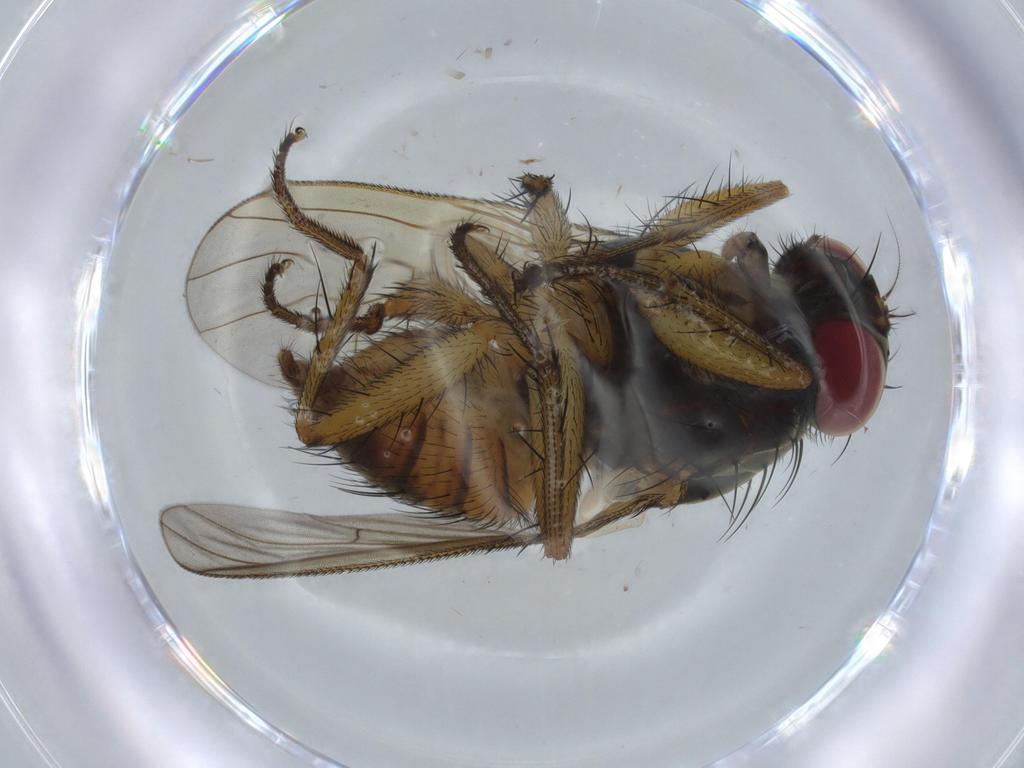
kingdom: Animalia
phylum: Arthropoda
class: Insecta
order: Diptera
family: Muscidae
